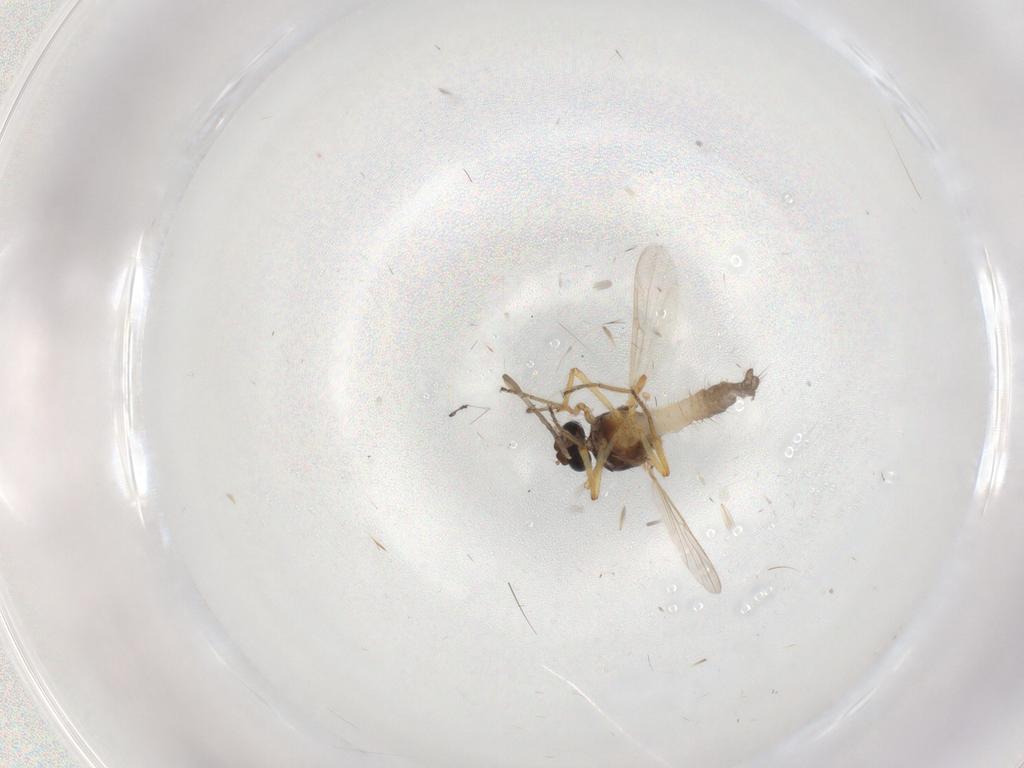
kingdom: Animalia
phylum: Arthropoda
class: Insecta
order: Diptera
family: Ceratopogonidae
